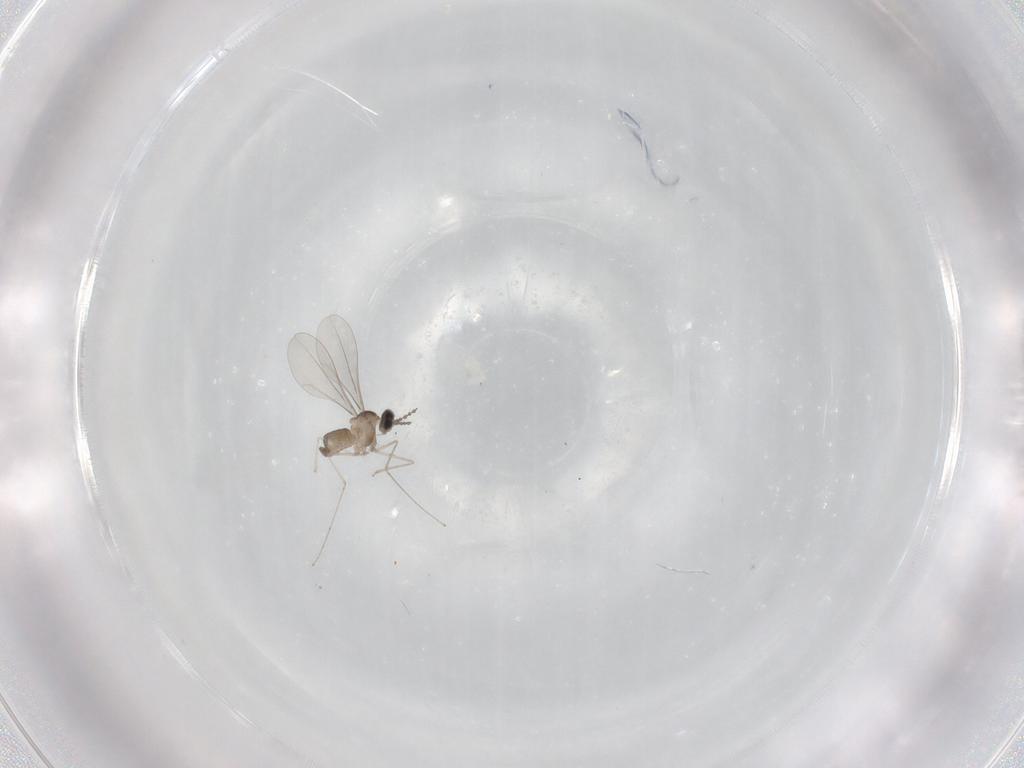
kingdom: Animalia
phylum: Arthropoda
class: Insecta
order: Diptera
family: Cecidomyiidae
